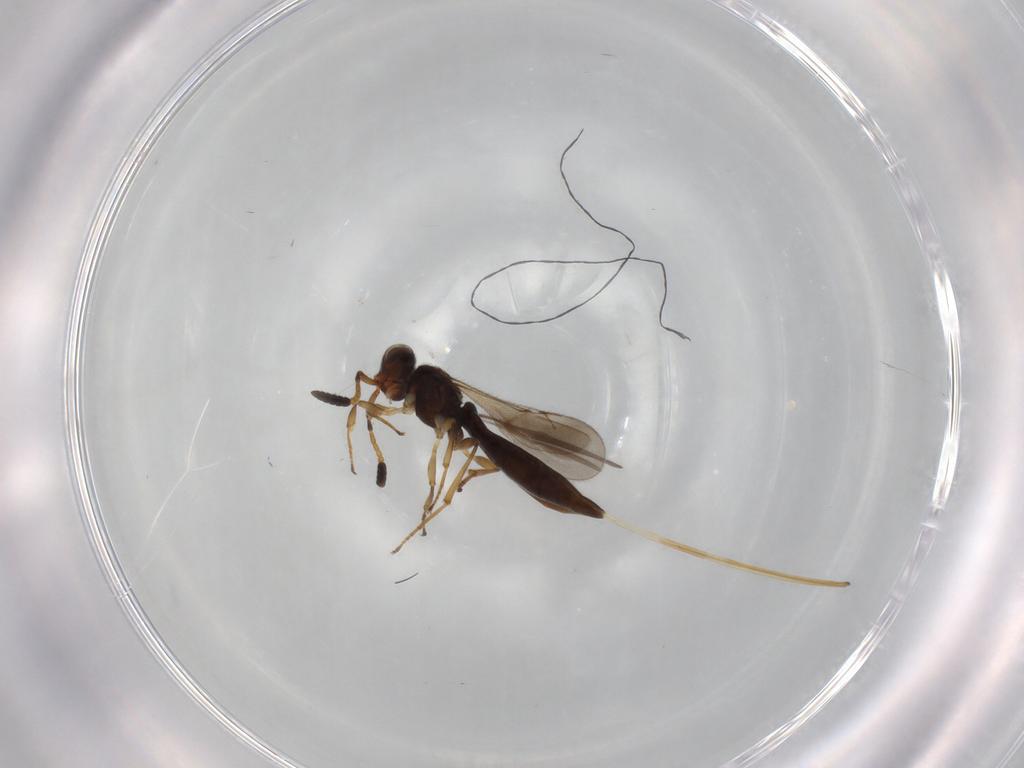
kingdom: Animalia
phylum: Arthropoda
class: Insecta
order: Hymenoptera
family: Scelionidae
